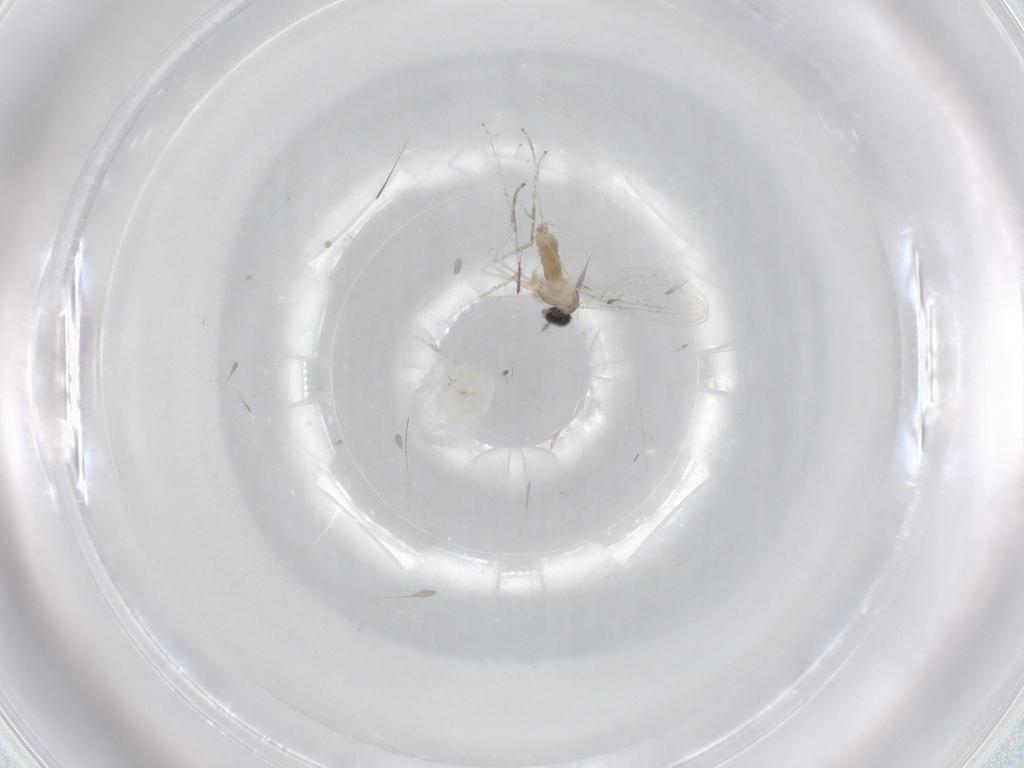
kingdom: Animalia
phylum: Arthropoda
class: Insecta
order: Diptera
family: Cecidomyiidae
